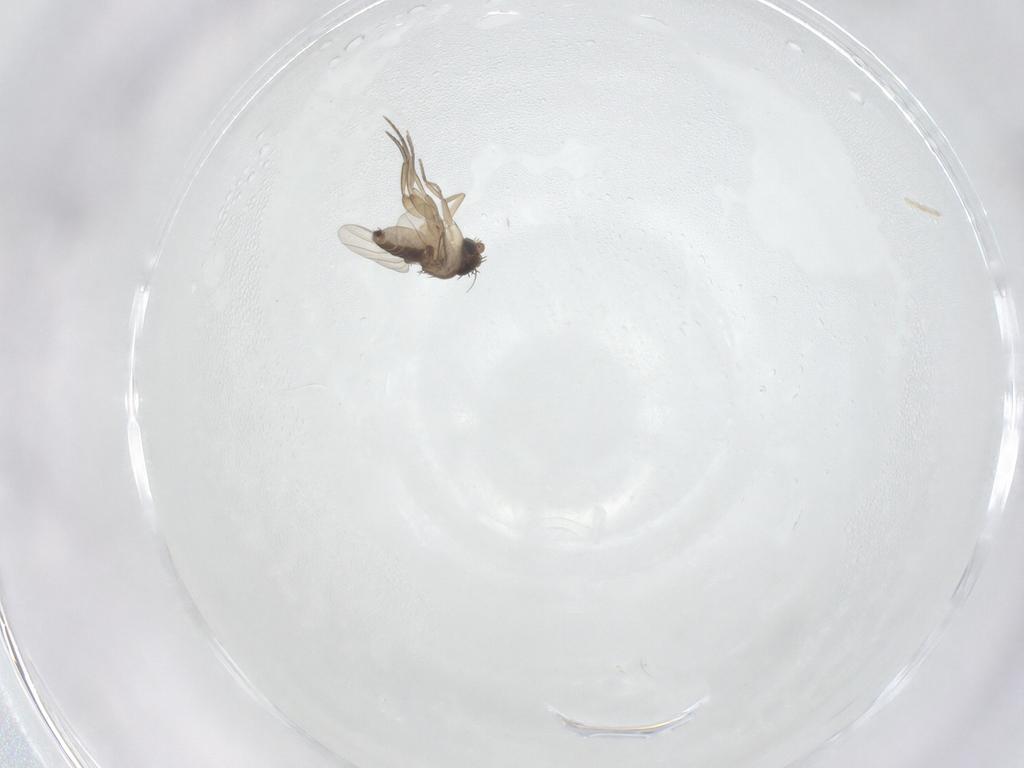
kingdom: Animalia
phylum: Arthropoda
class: Insecta
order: Diptera
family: Phoridae
